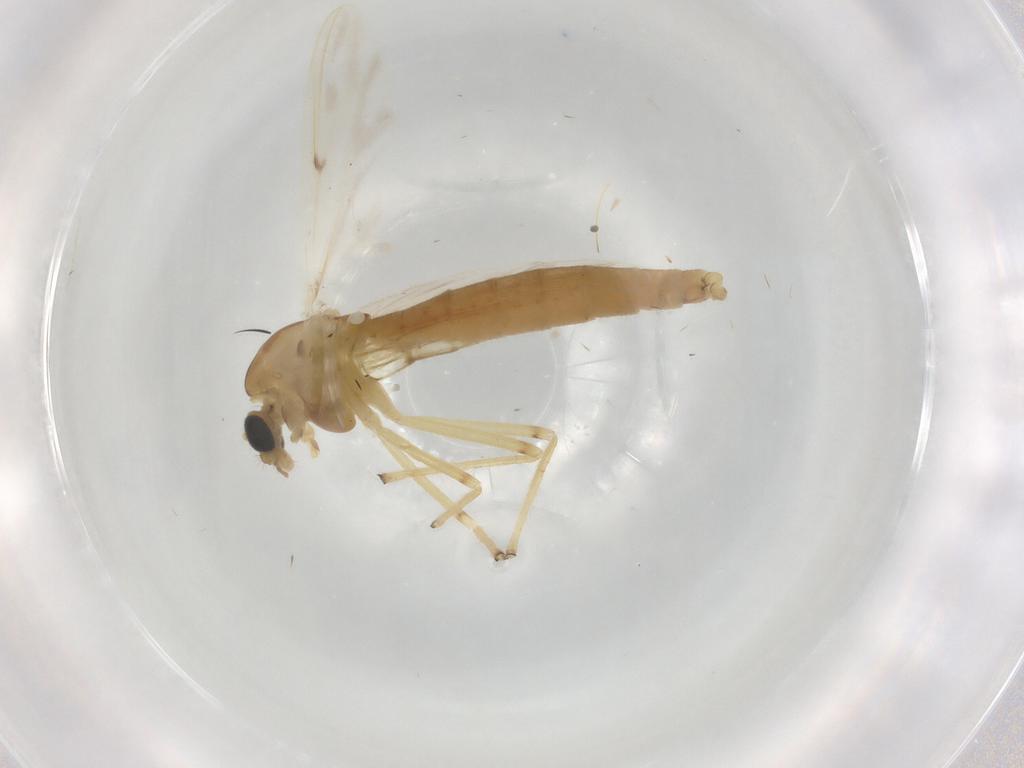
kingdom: Animalia
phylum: Arthropoda
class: Insecta
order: Diptera
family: Chironomidae
